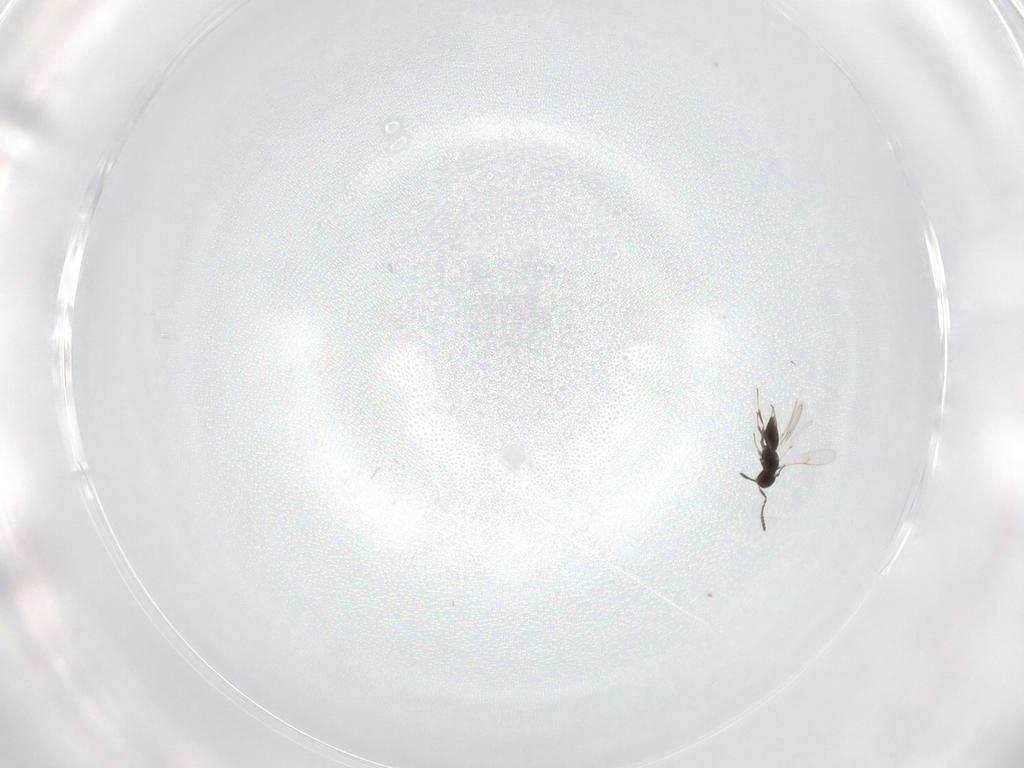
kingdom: Animalia
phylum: Arthropoda
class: Insecta
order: Hymenoptera
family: Scelionidae
